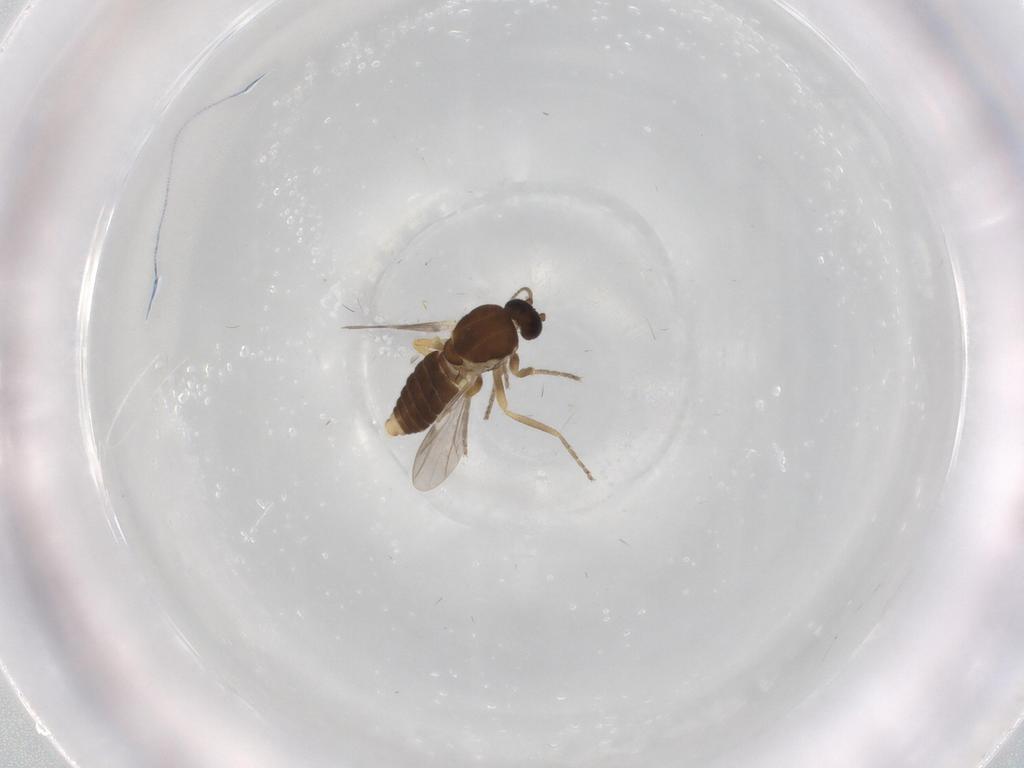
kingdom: Animalia
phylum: Arthropoda
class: Insecta
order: Diptera
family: Ceratopogonidae
